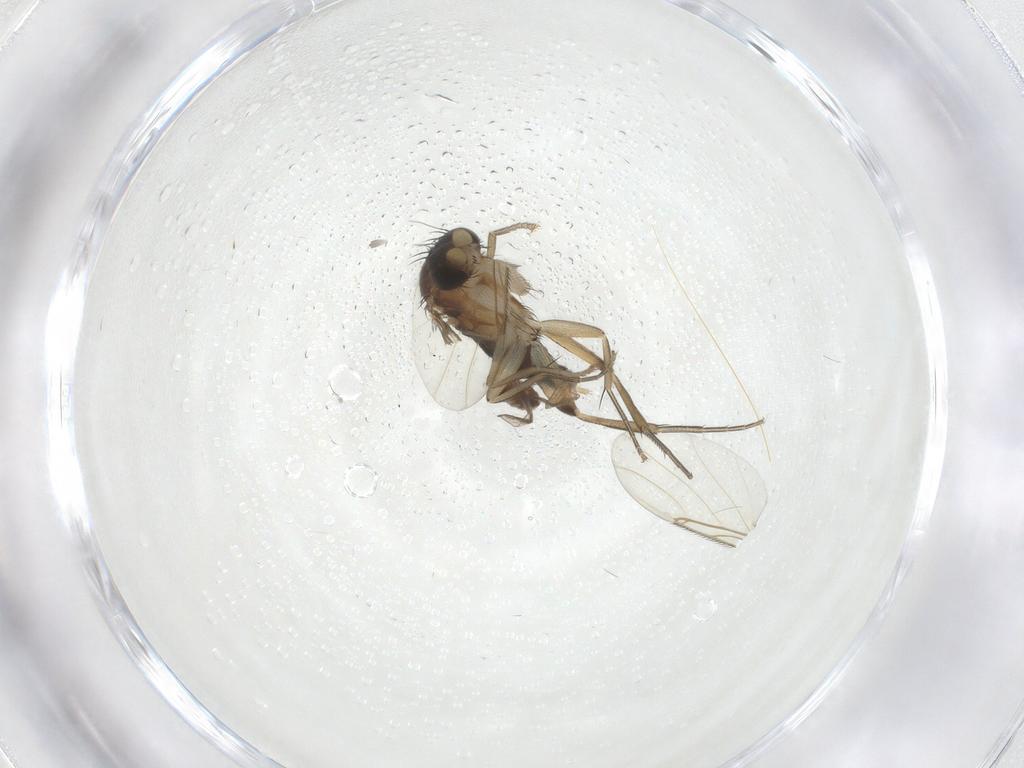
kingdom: Animalia
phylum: Arthropoda
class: Insecta
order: Diptera
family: Phoridae
